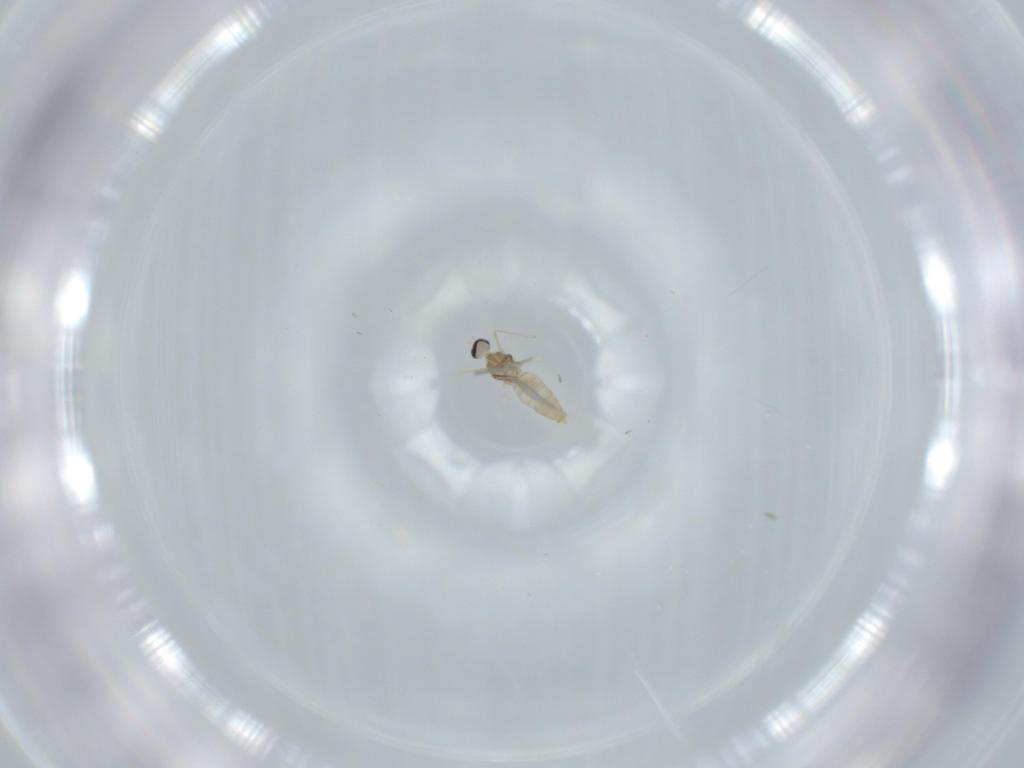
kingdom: Animalia
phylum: Arthropoda
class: Insecta
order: Diptera
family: Cecidomyiidae
